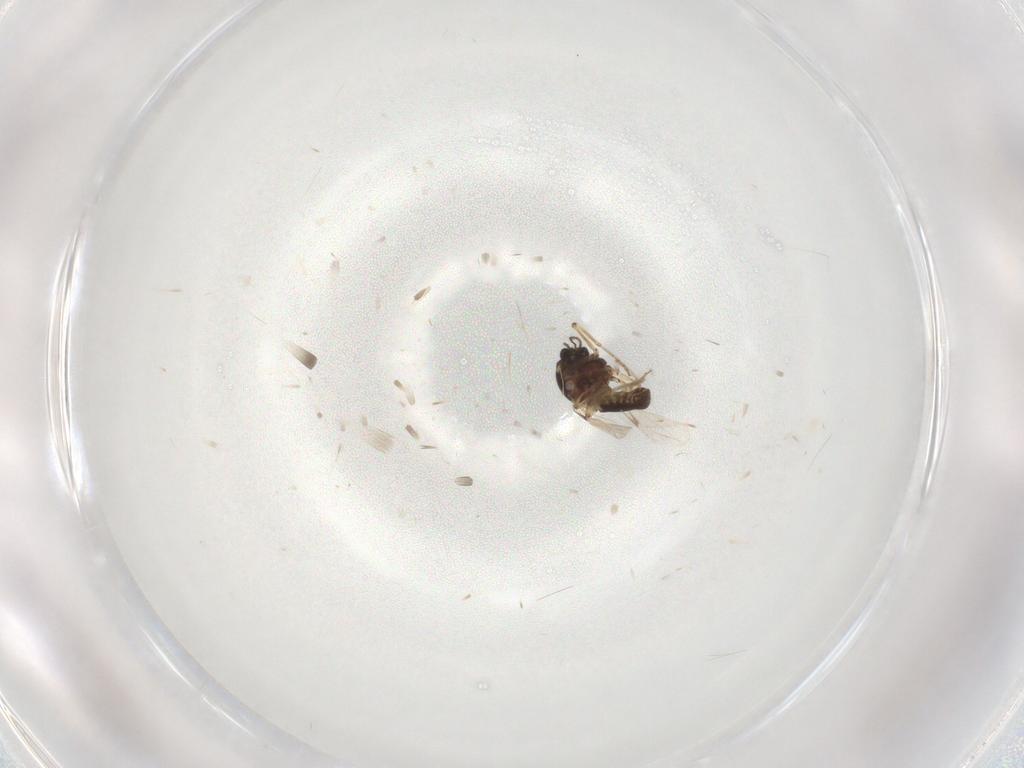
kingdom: Animalia
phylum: Arthropoda
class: Insecta
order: Diptera
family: Ceratopogonidae
